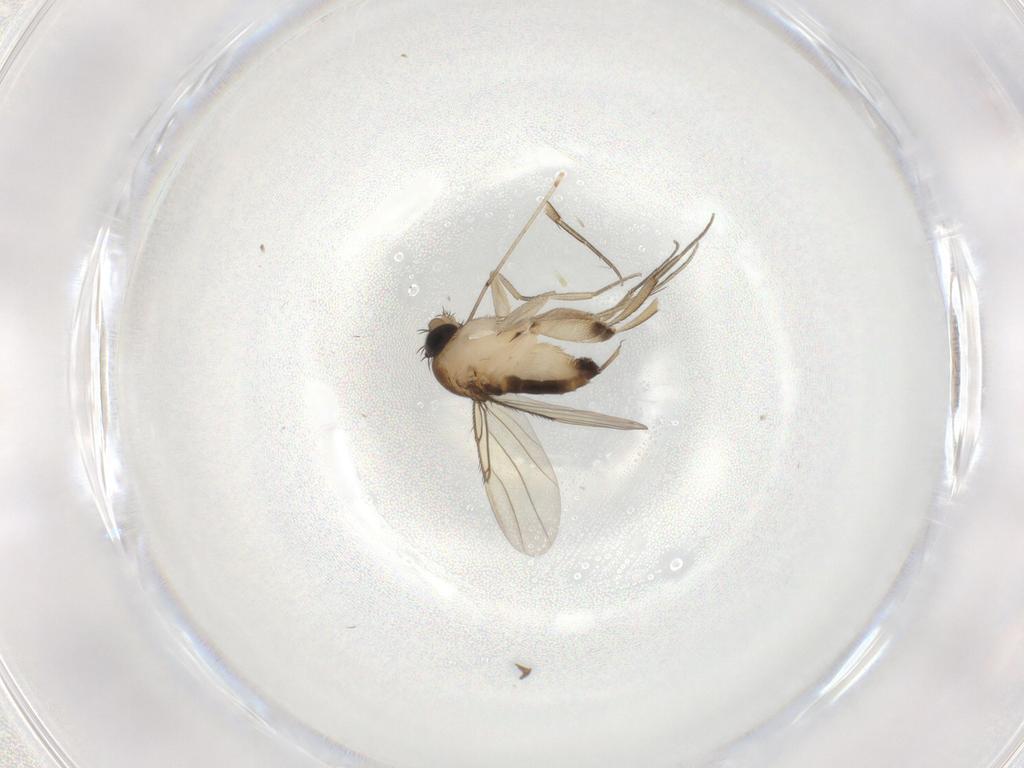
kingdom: Animalia
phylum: Arthropoda
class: Insecta
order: Diptera
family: Phoridae
